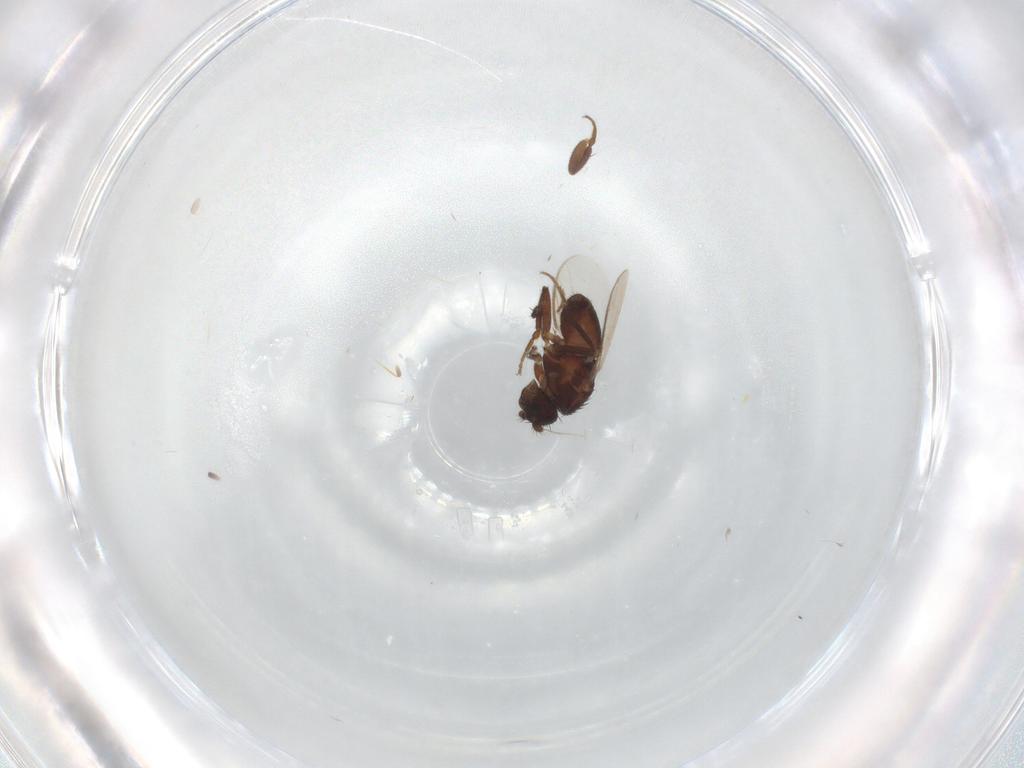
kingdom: Animalia
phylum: Arthropoda
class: Insecta
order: Diptera
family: Sphaeroceridae
